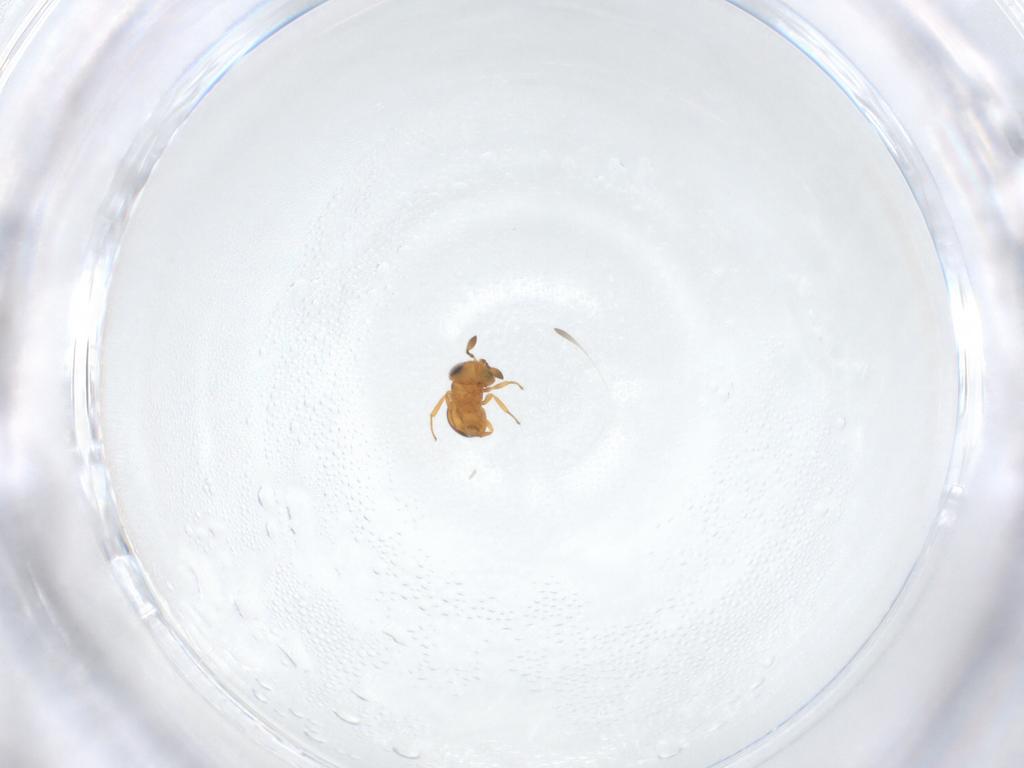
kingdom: Animalia
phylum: Arthropoda
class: Insecta
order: Hymenoptera
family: Scelionidae
